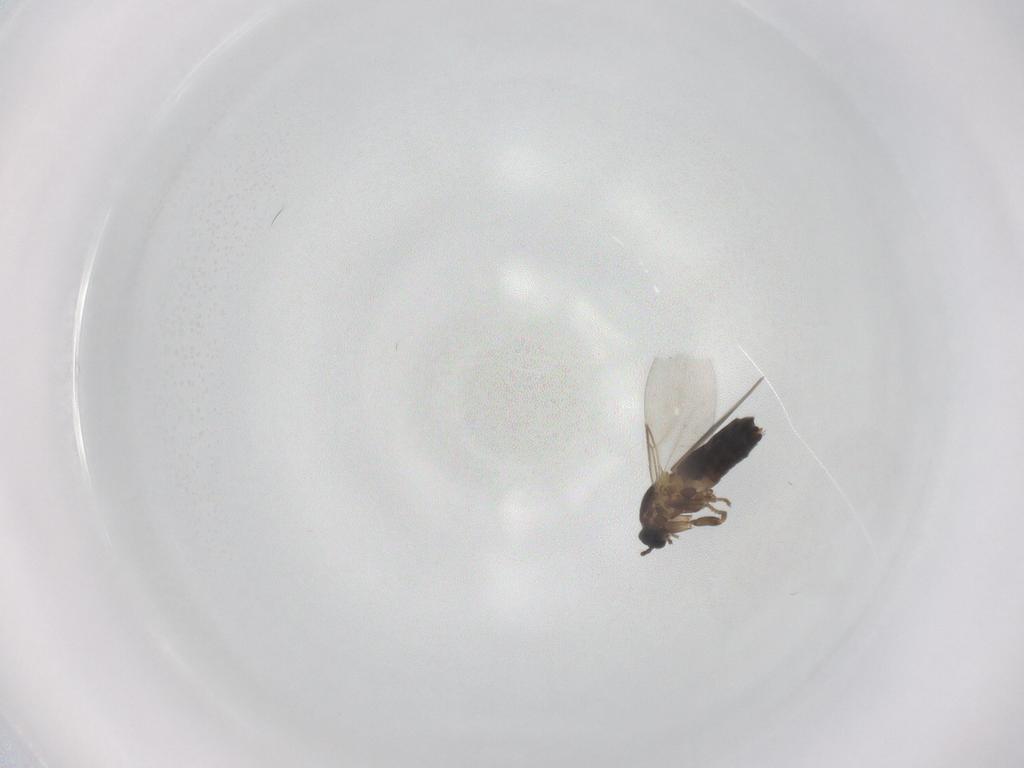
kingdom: Animalia
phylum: Arthropoda
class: Insecta
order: Diptera
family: Scatopsidae
